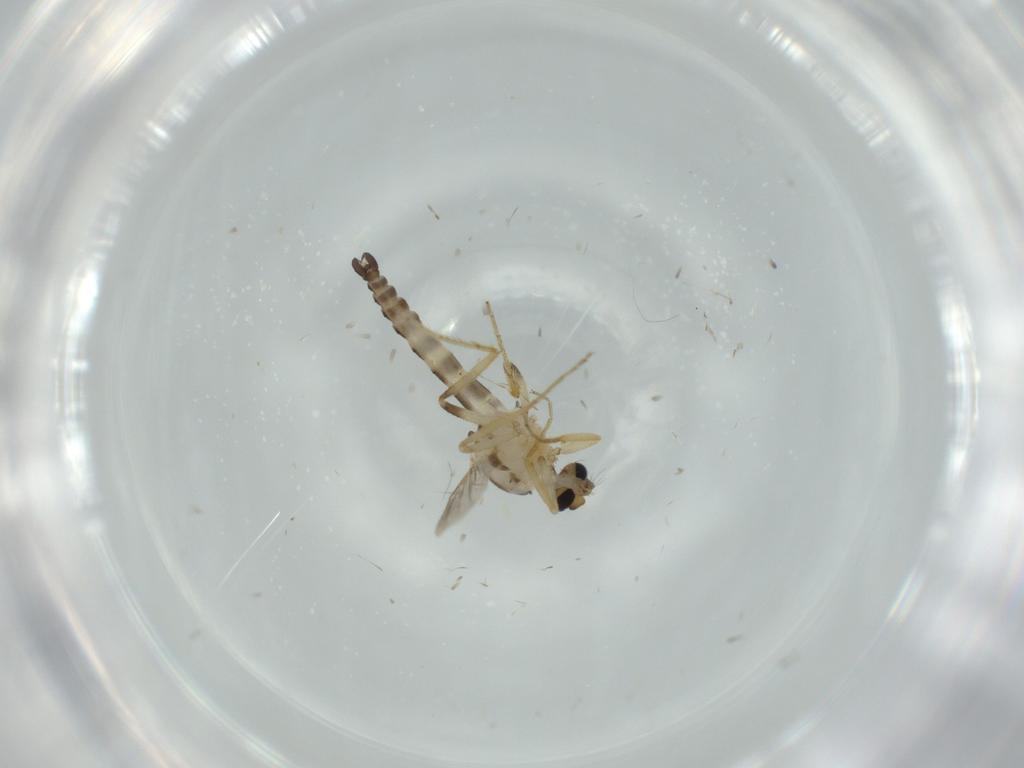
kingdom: Animalia
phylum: Arthropoda
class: Insecta
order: Diptera
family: Ceratopogonidae
